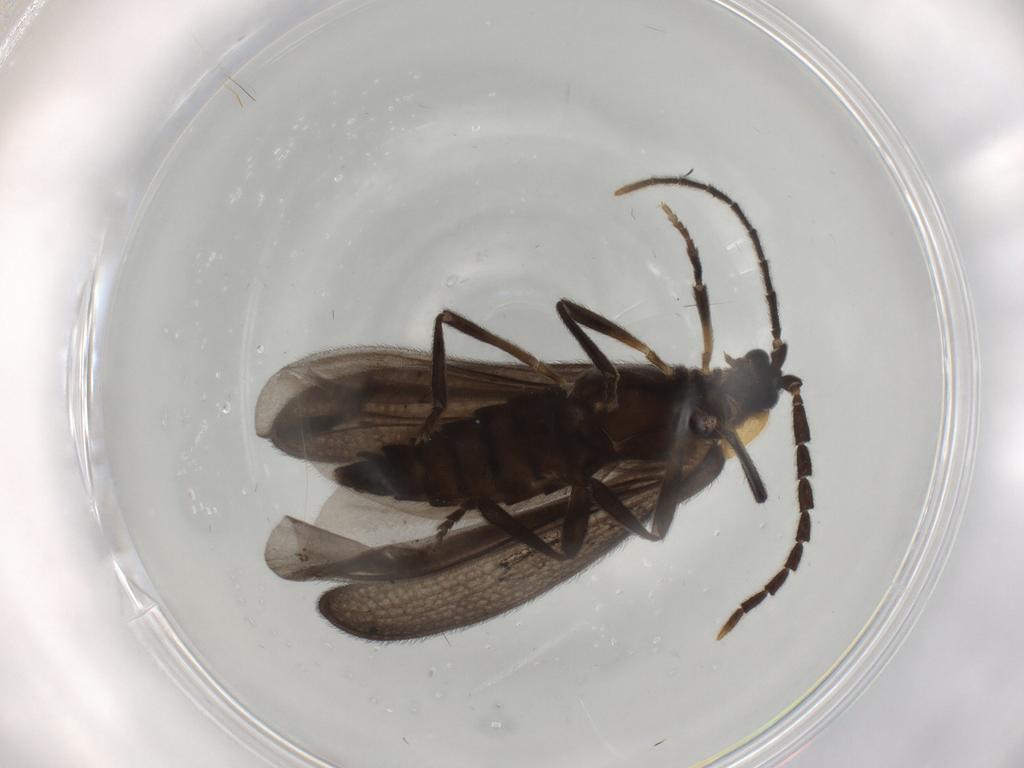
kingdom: Animalia
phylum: Arthropoda
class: Insecta
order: Coleoptera
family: Lycidae
